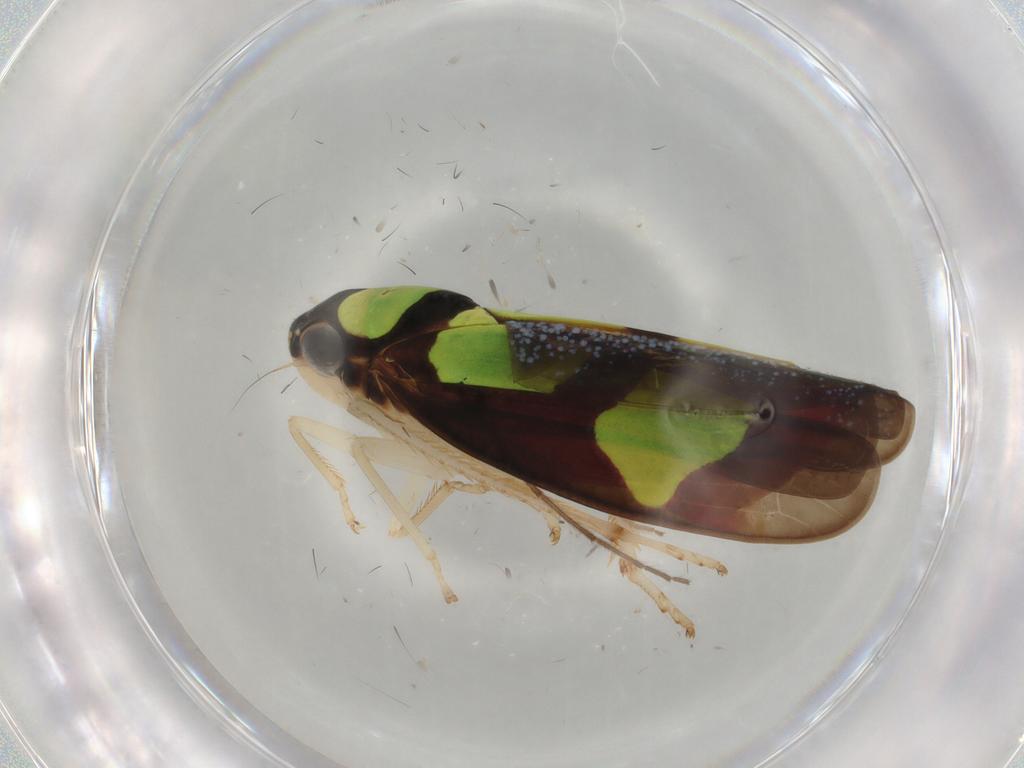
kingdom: Animalia
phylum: Arthropoda
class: Insecta
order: Hemiptera
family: Cicadellidae
